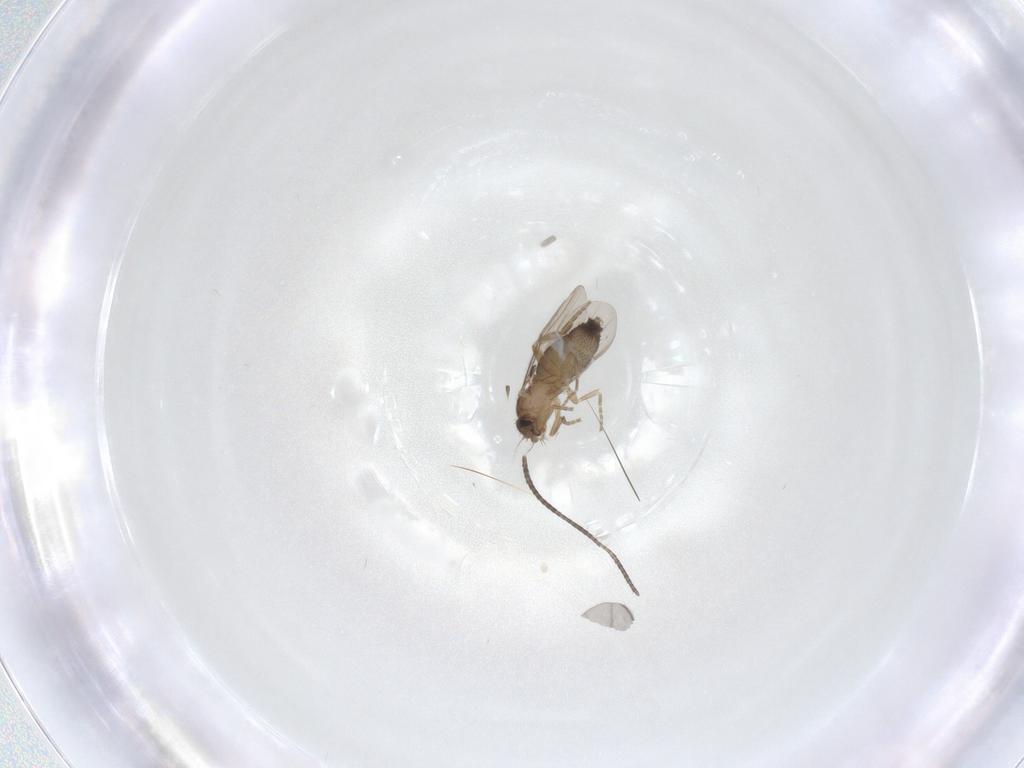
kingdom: Animalia
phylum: Arthropoda
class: Insecta
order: Diptera
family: Phoridae
